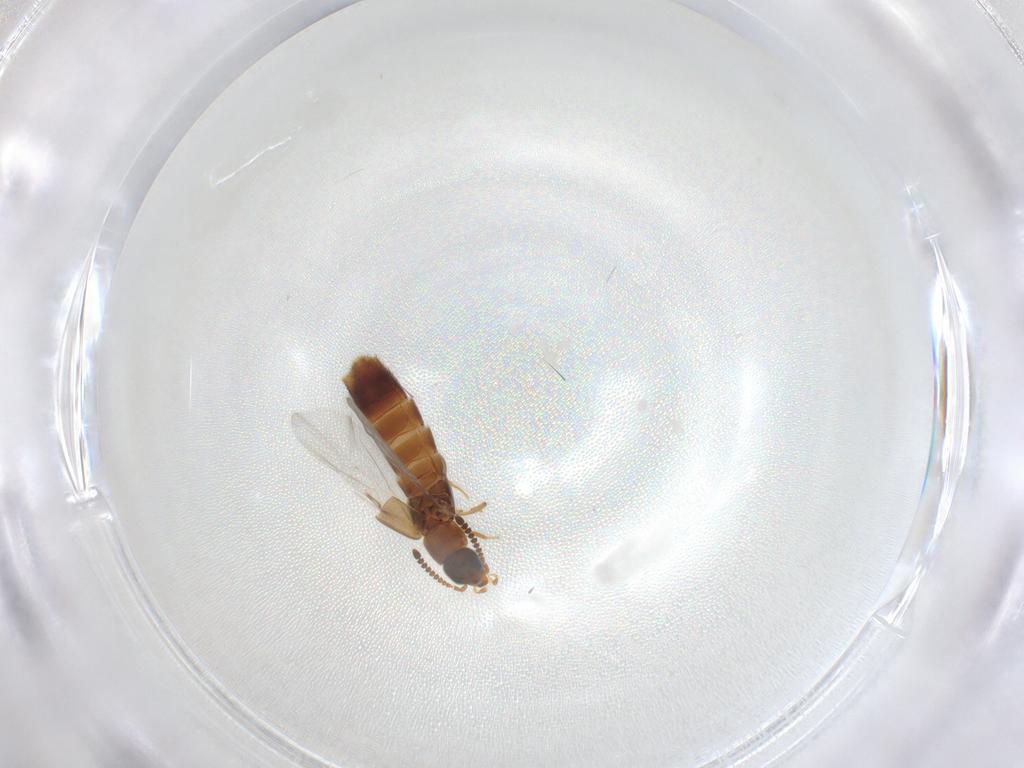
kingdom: Animalia
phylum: Arthropoda
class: Insecta
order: Coleoptera
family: Staphylinidae
